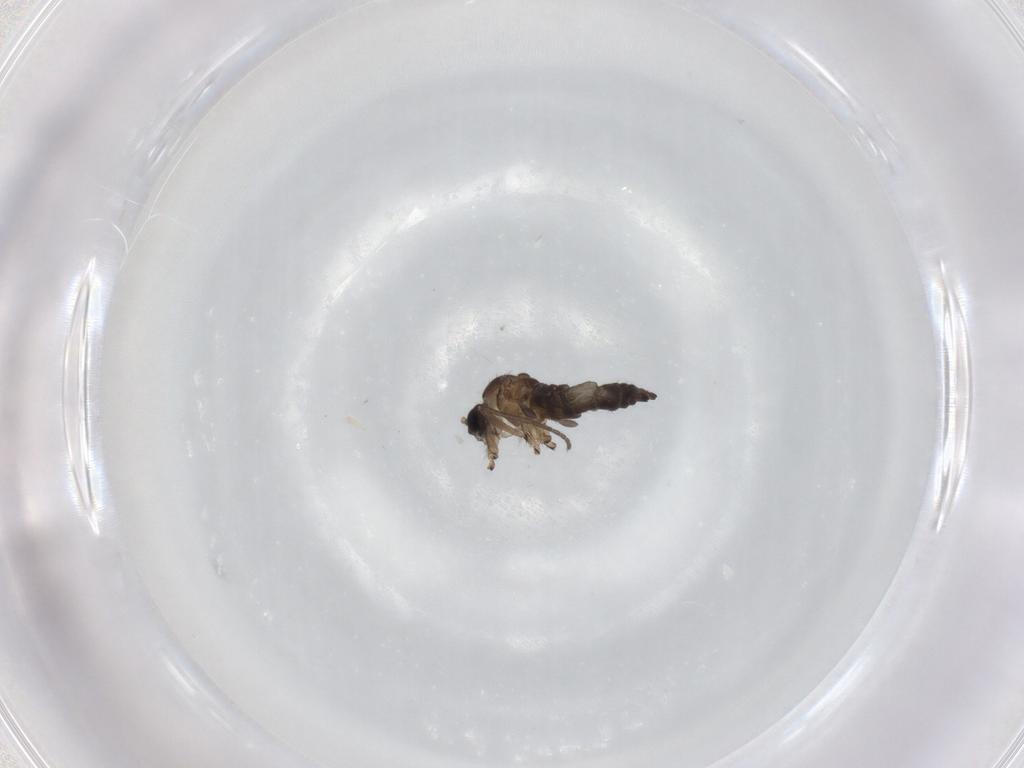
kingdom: Animalia
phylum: Arthropoda
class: Insecta
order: Diptera
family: Sciaridae
